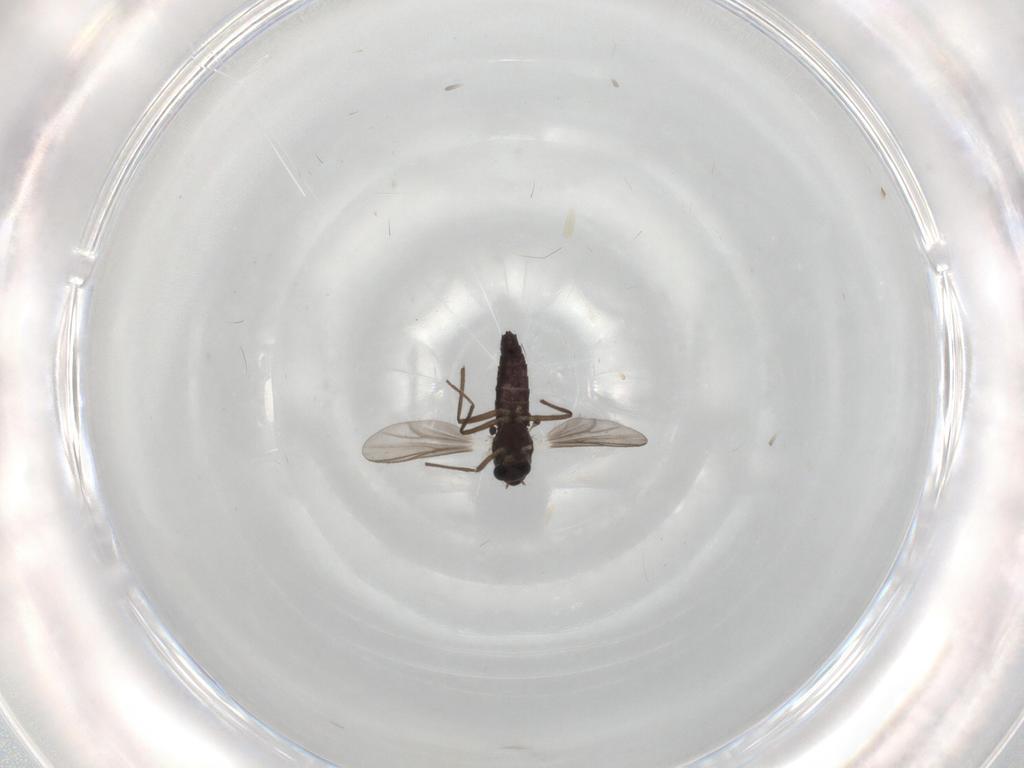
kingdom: Animalia
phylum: Arthropoda
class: Insecta
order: Diptera
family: Chironomidae
